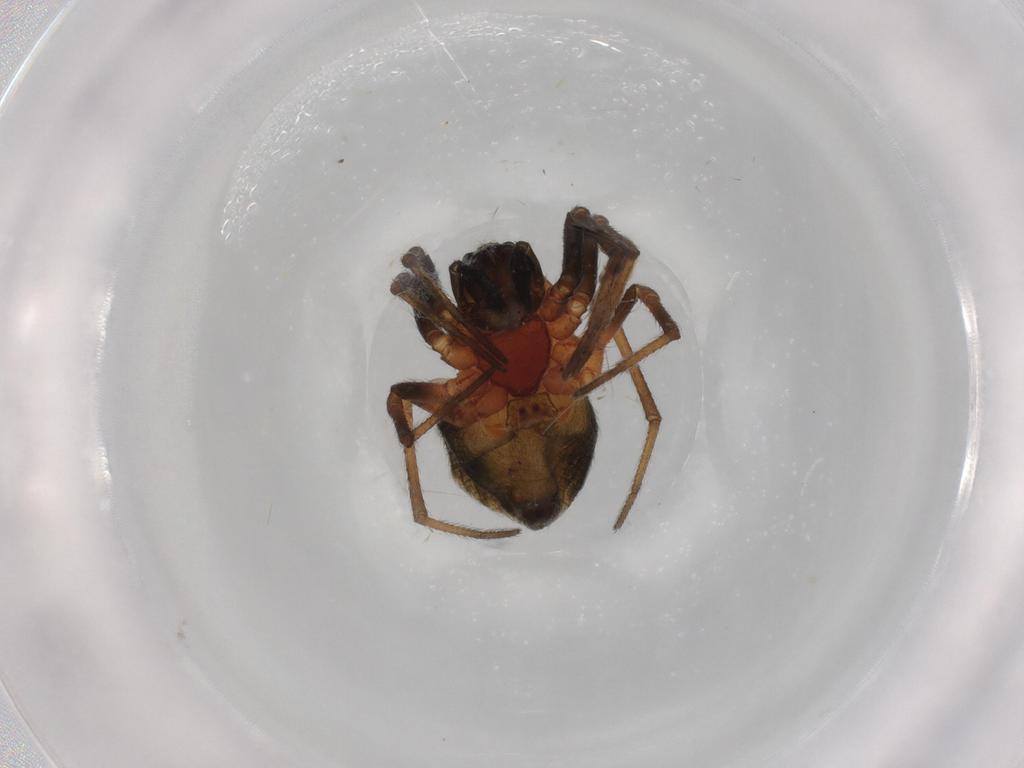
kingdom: Animalia
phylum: Arthropoda
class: Arachnida
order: Araneae
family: Linyphiidae
